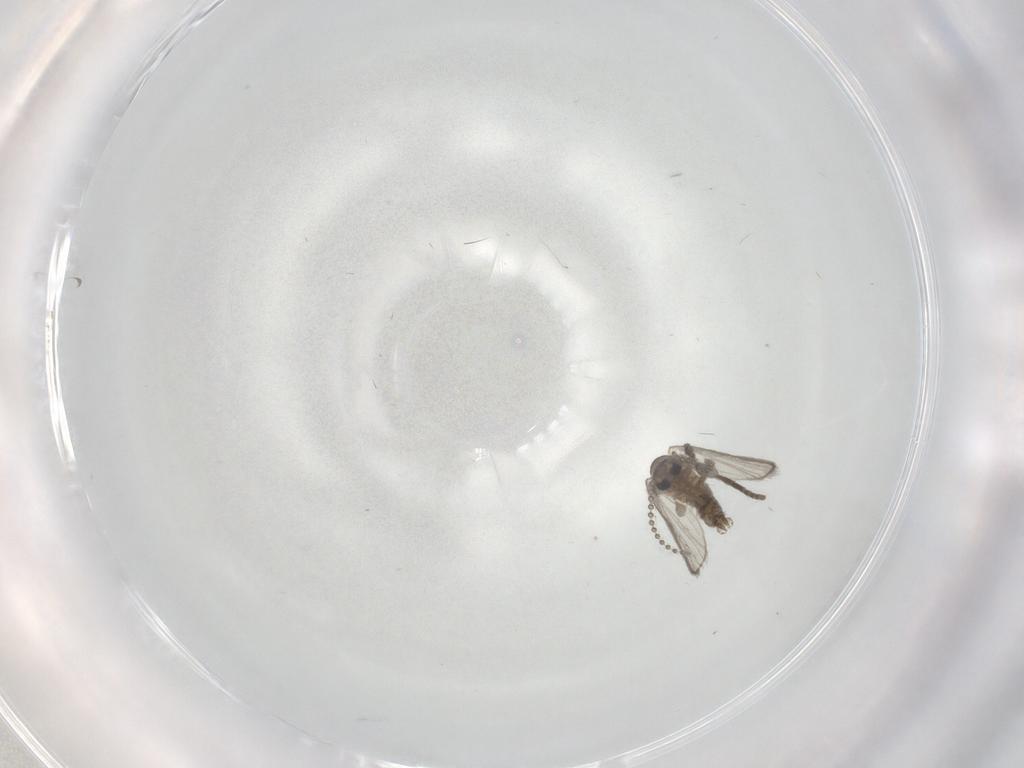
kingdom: Animalia
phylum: Arthropoda
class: Insecta
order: Diptera
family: Psychodidae
